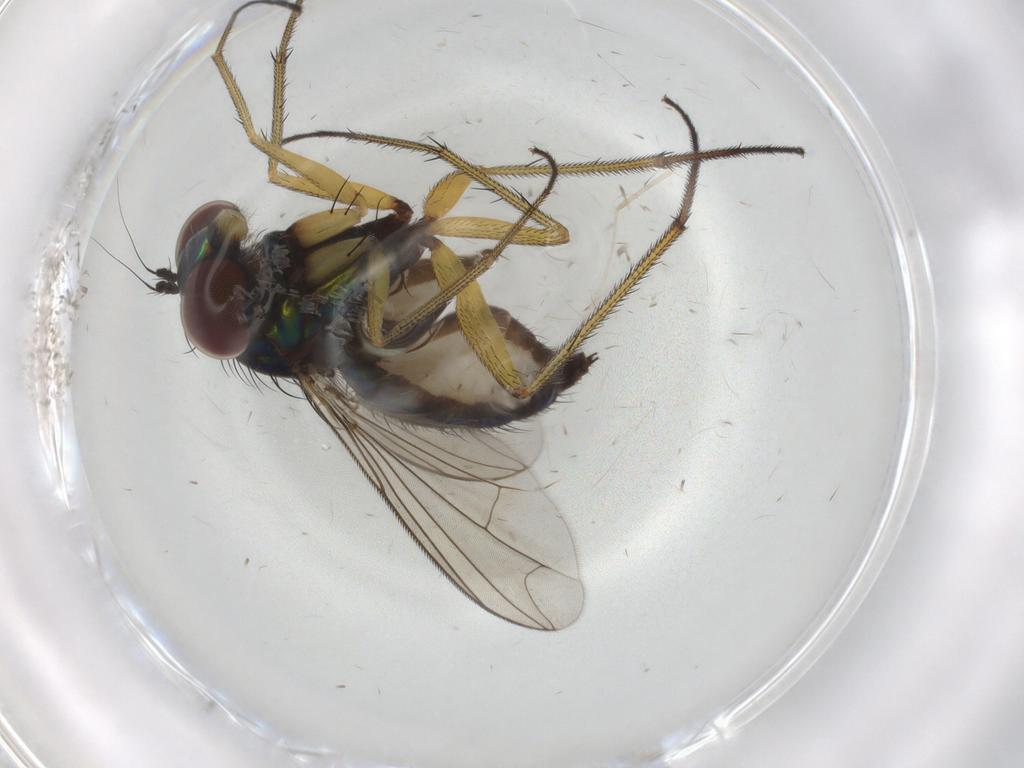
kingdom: Animalia
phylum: Arthropoda
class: Insecta
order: Diptera
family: Dolichopodidae
